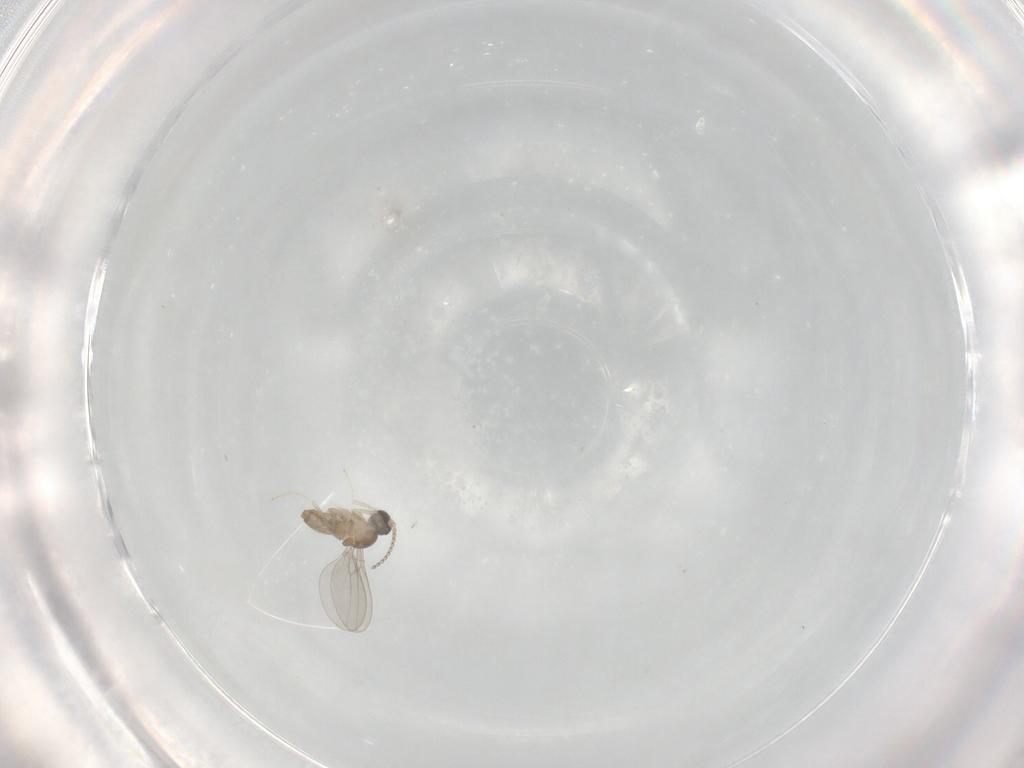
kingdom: Animalia
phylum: Arthropoda
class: Insecta
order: Diptera
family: Cecidomyiidae
